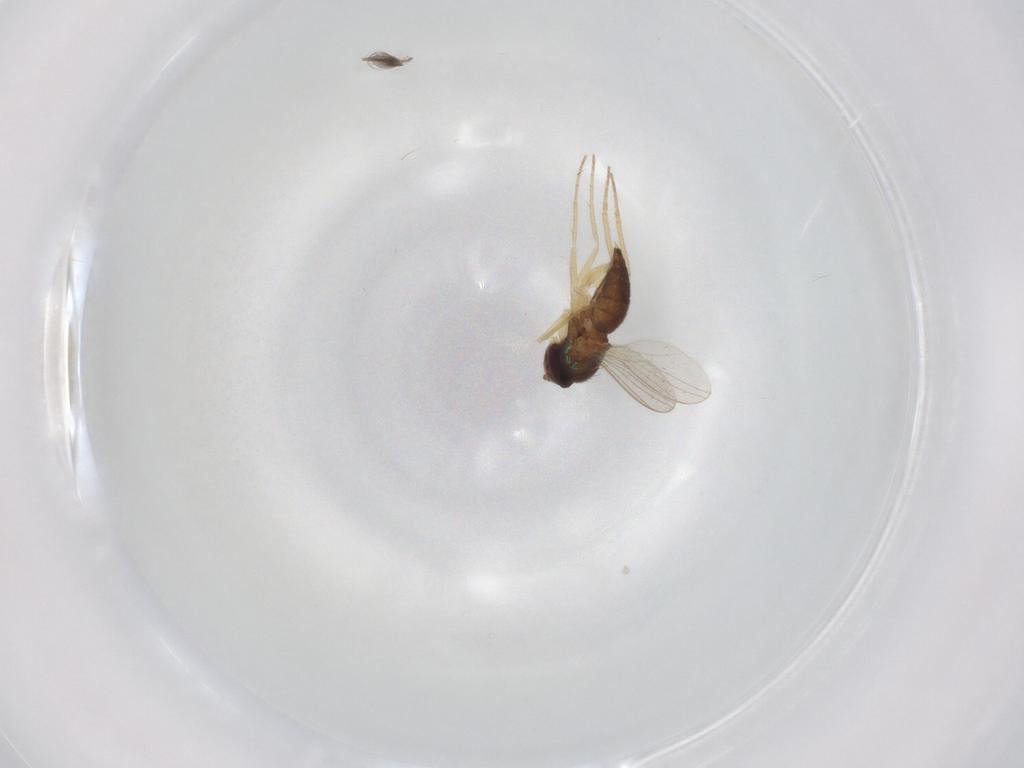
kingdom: Animalia
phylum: Arthropoda
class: Insecta
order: Diptera
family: Dolichopodidae
